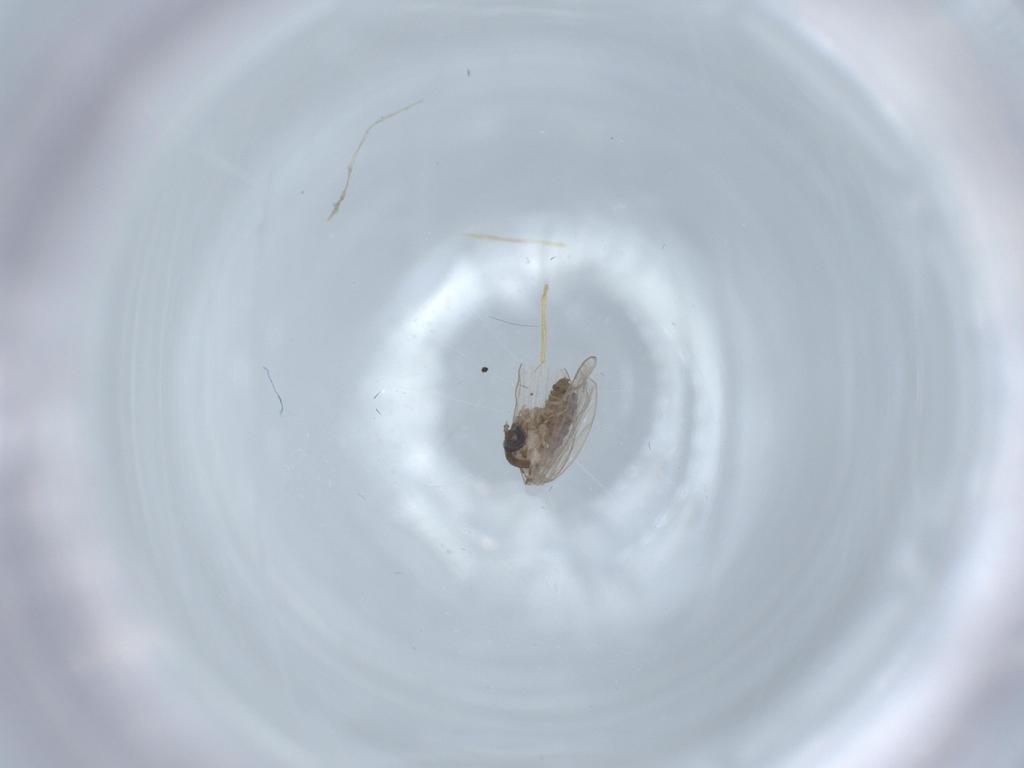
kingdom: Animalia
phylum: Arthropoda
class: Insecta
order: Diptera
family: Psychodidae
